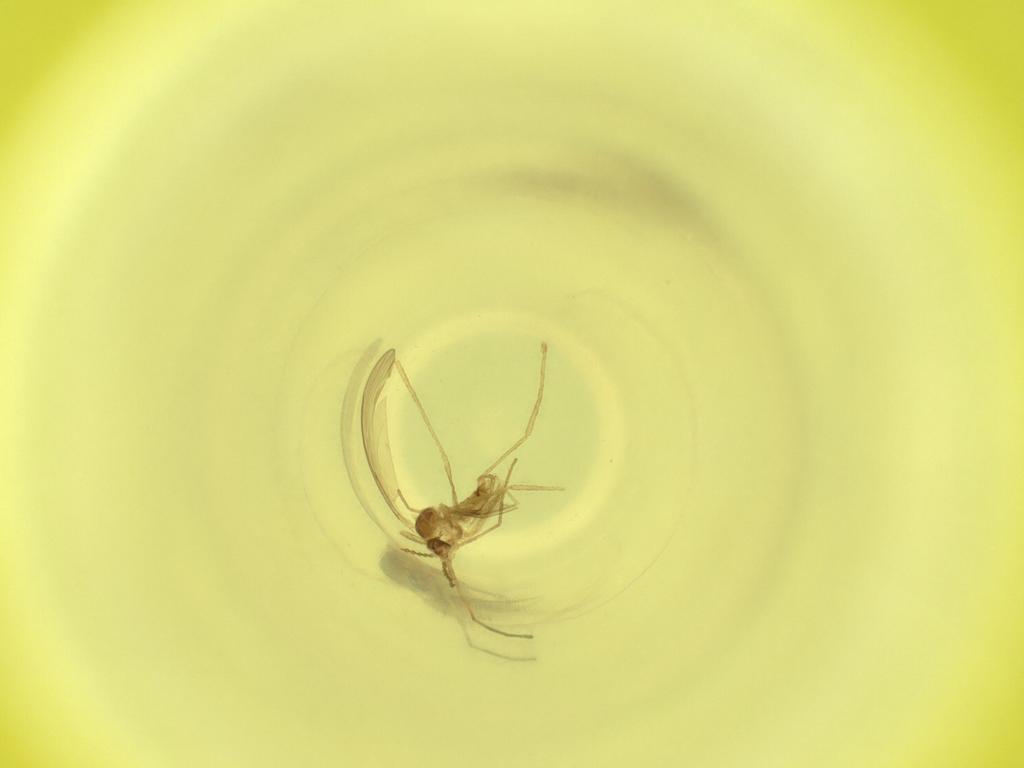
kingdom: Animalia
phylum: Arthropoda
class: Insecta
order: Diptera
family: Cecidomyiidae
